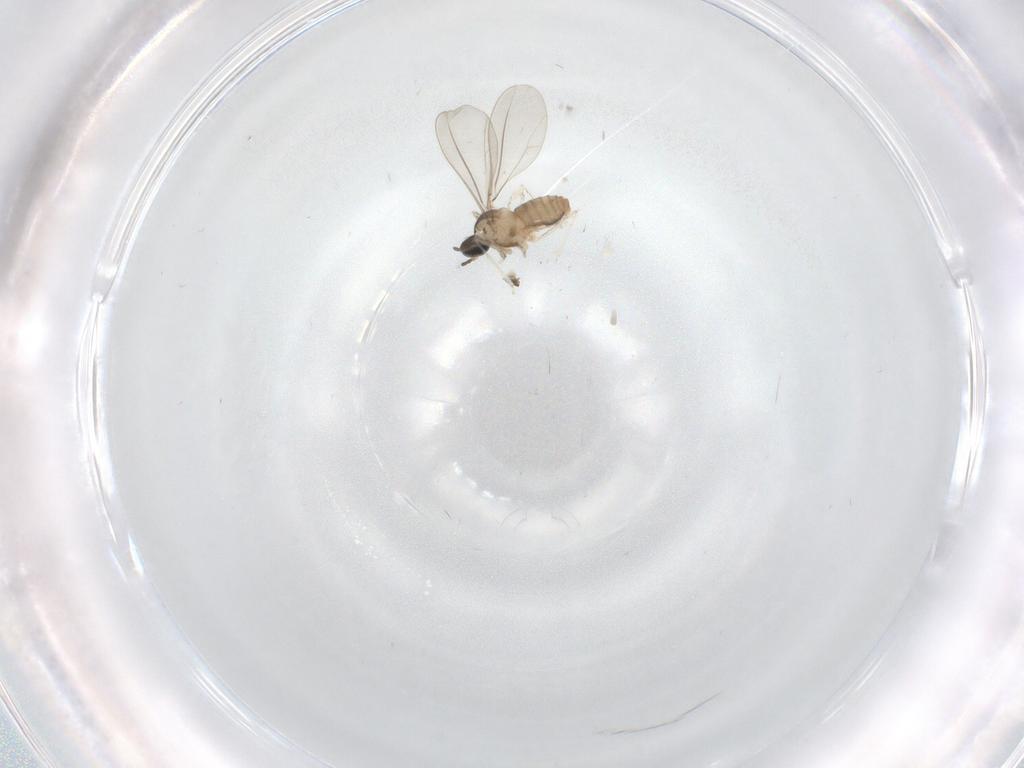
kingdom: Animalia
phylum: Arthropoda
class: Insecta
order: Diptera
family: Cecidomyiidae
